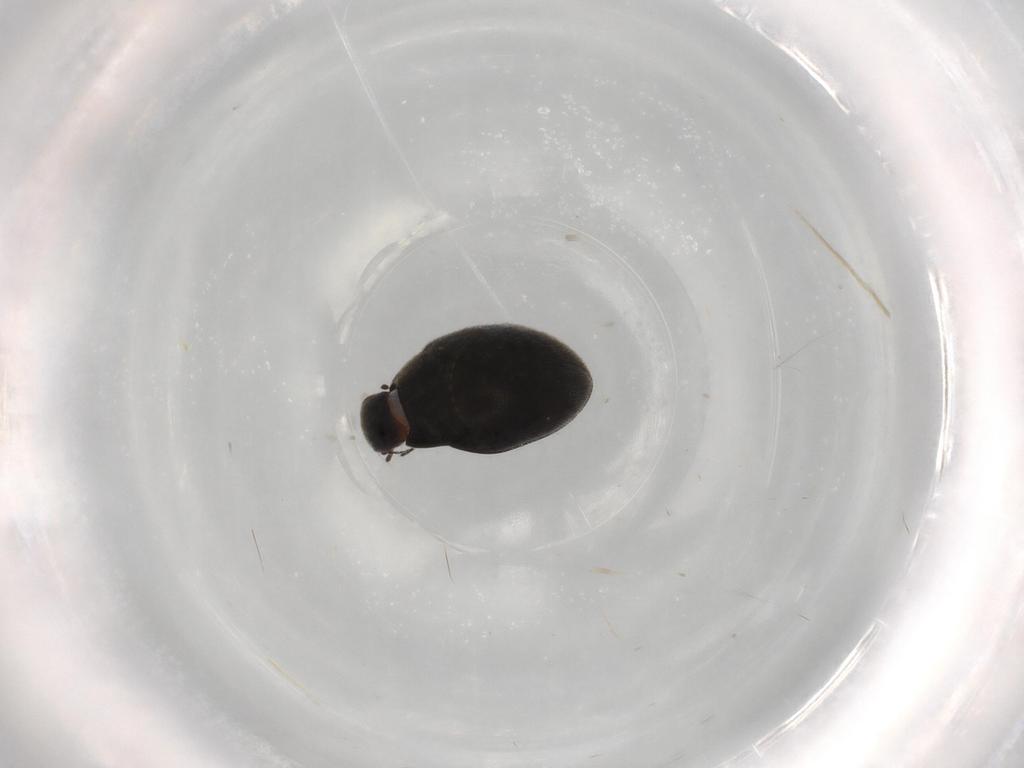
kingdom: Animalia
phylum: Arthropoda
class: Insecta
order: Coleoptera
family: Limnichidae
